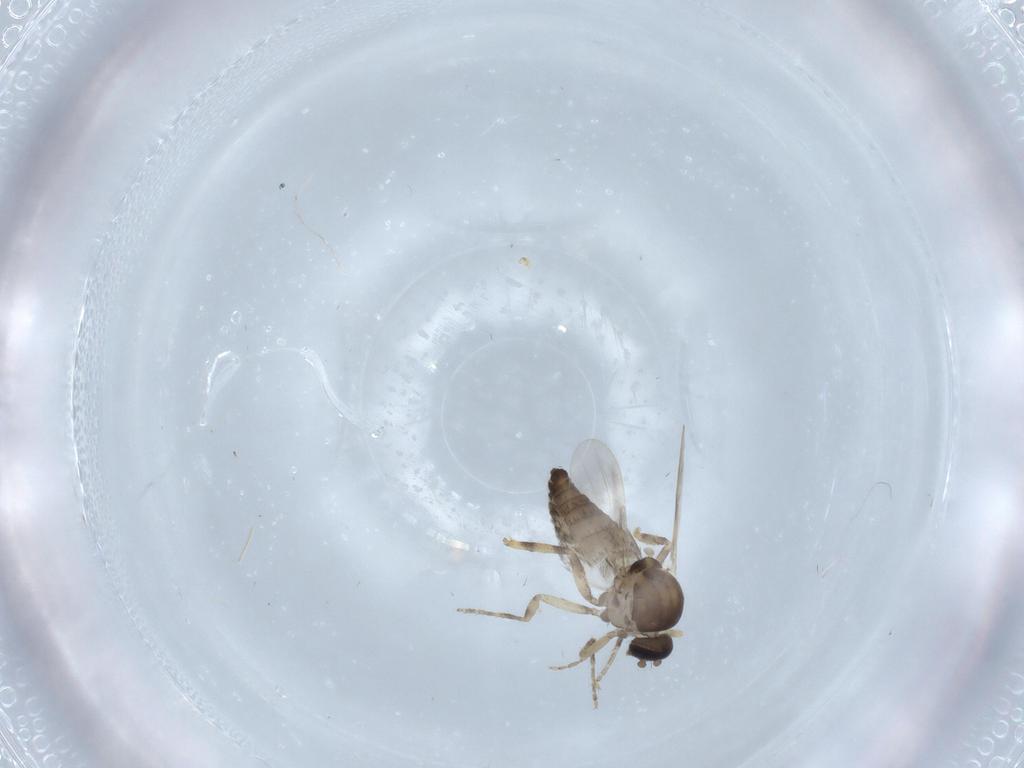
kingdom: Animalia
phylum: Arthropoda
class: Insecta
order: Diptera
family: Ceratopogonidae
